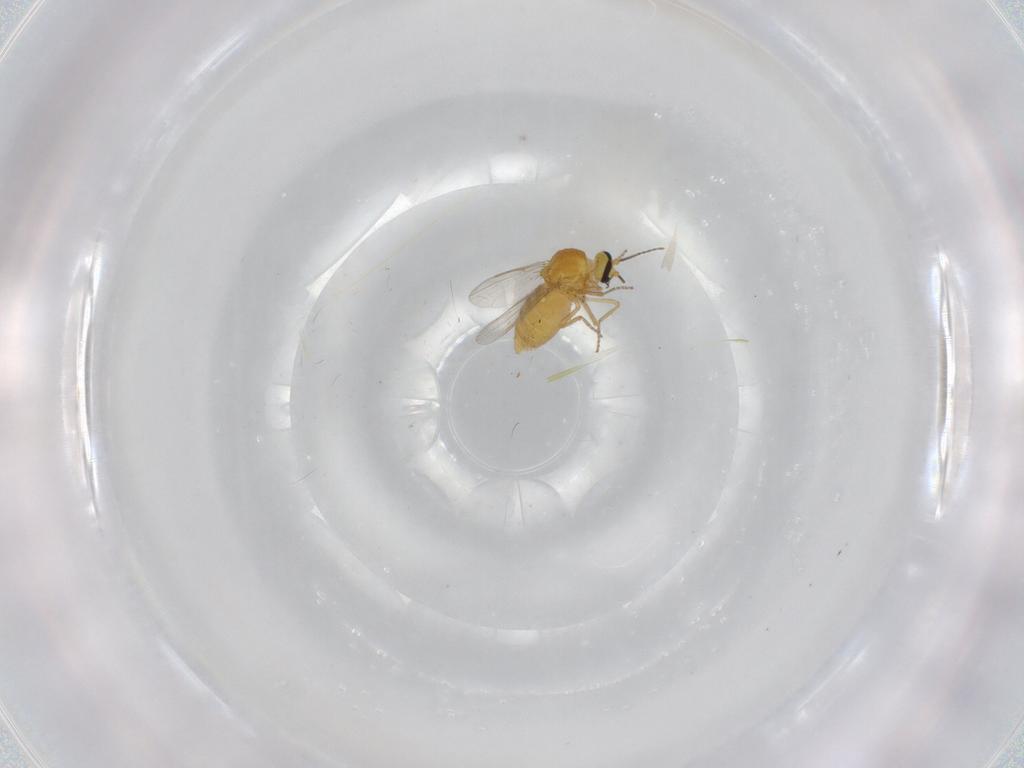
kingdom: Animalia
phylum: Arthropoda
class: Insecta
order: Diptera
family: Ceratopogonidae
